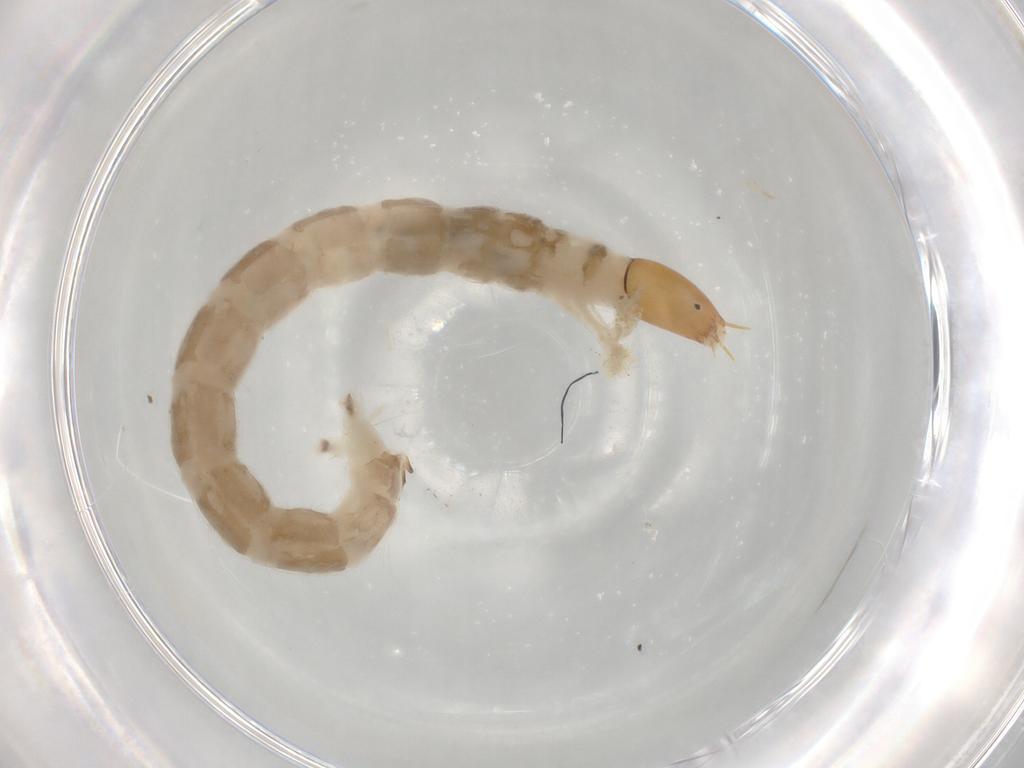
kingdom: Animalia
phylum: Arthropoda
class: Insecta
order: Diptera
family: Chironomidae
